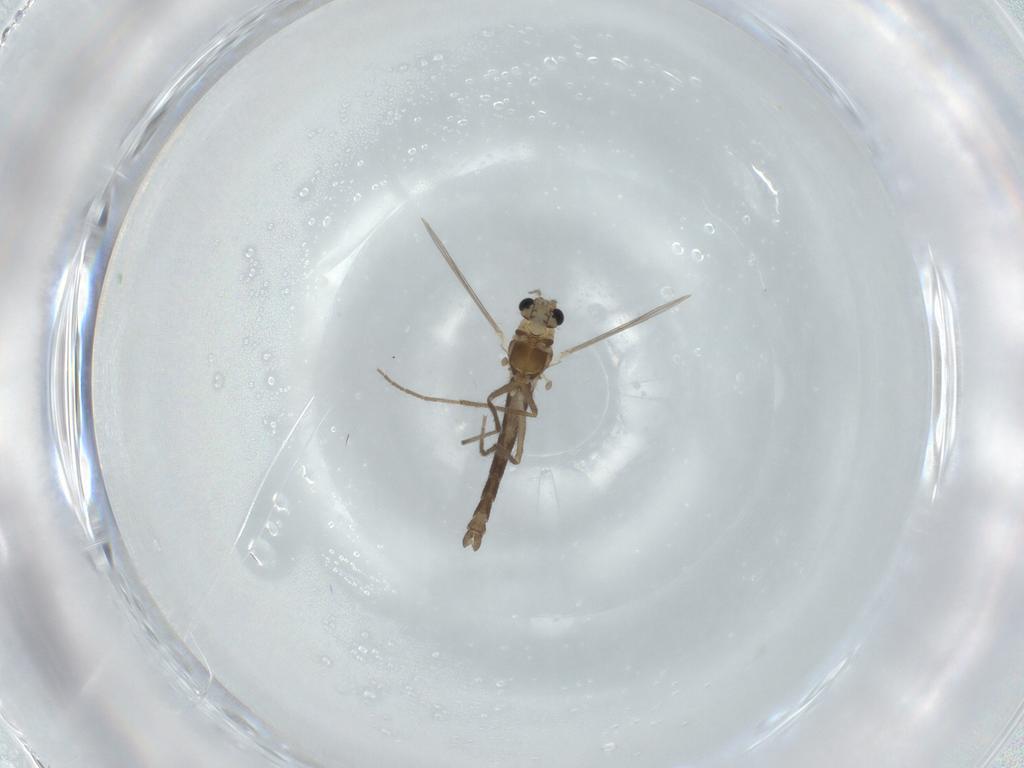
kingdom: Animalia
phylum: Arthropoda
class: Insecta
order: Diptera
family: Chironomidae
